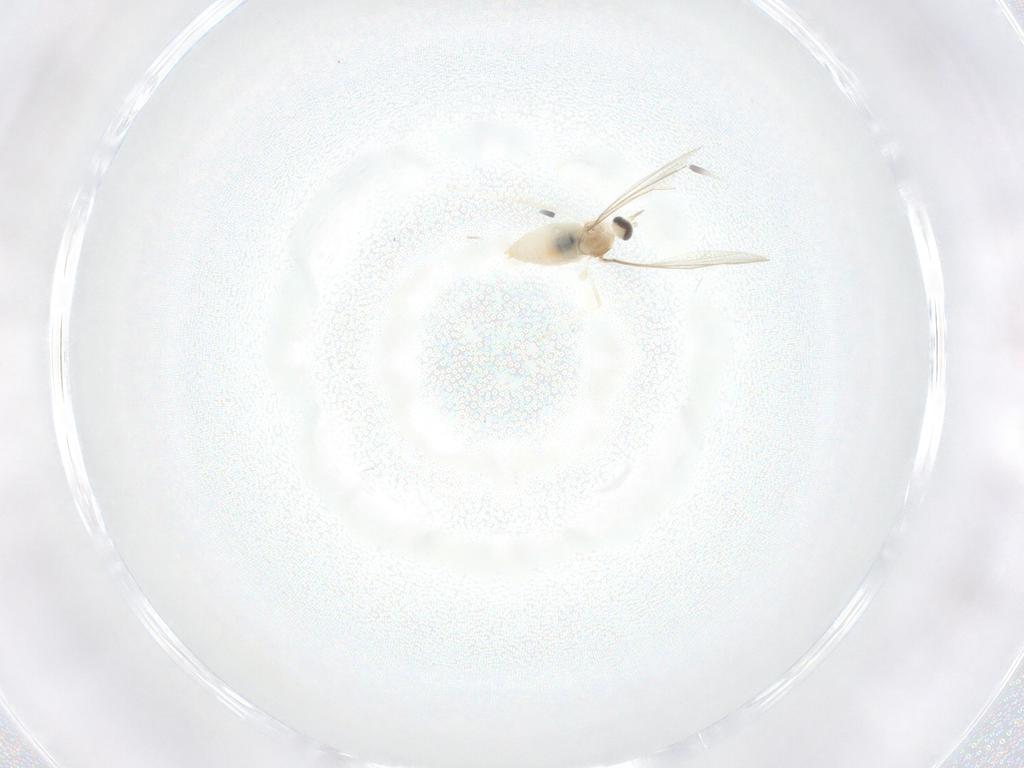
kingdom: Animalia
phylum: Arthropoda
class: Insecta
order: Diptera
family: Cecidomyiidae
